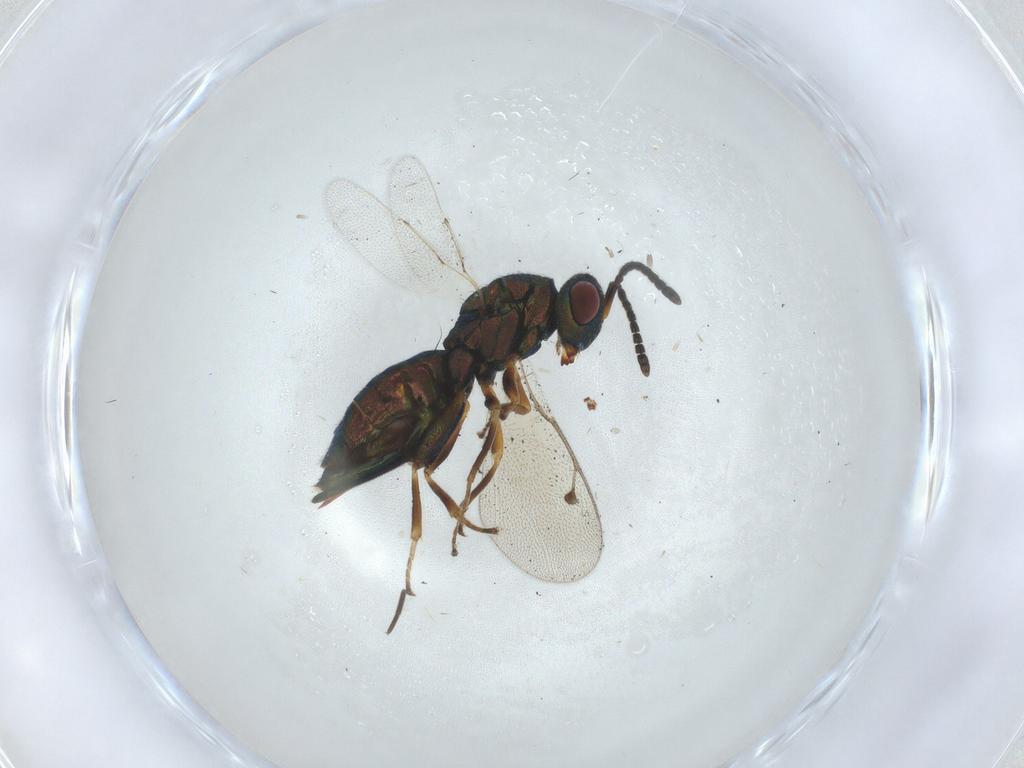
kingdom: Animalia
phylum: Arthropoda
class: Insecta
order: Hymenoptera
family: Pteromalidae
